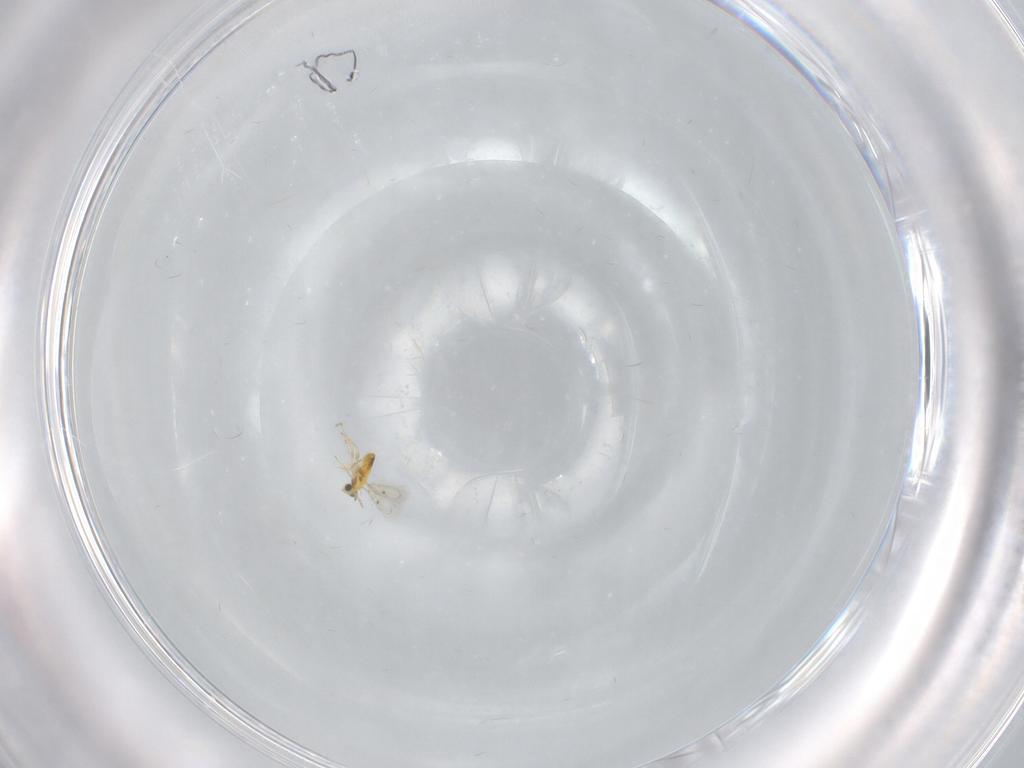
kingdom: Animalia
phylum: Arthropoda
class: Insecta
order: Hymenoptera
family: Trichogrammatidae
